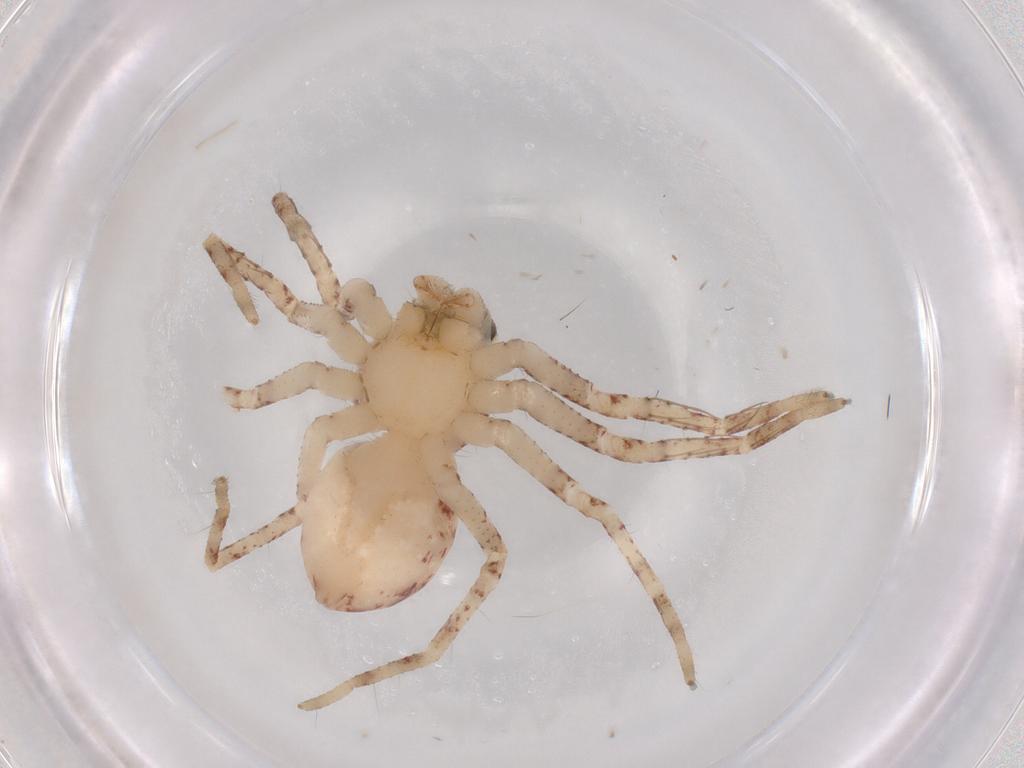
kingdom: Animalia
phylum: Arthropoda
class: Arachnida
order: Araneae
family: Sparassidae
